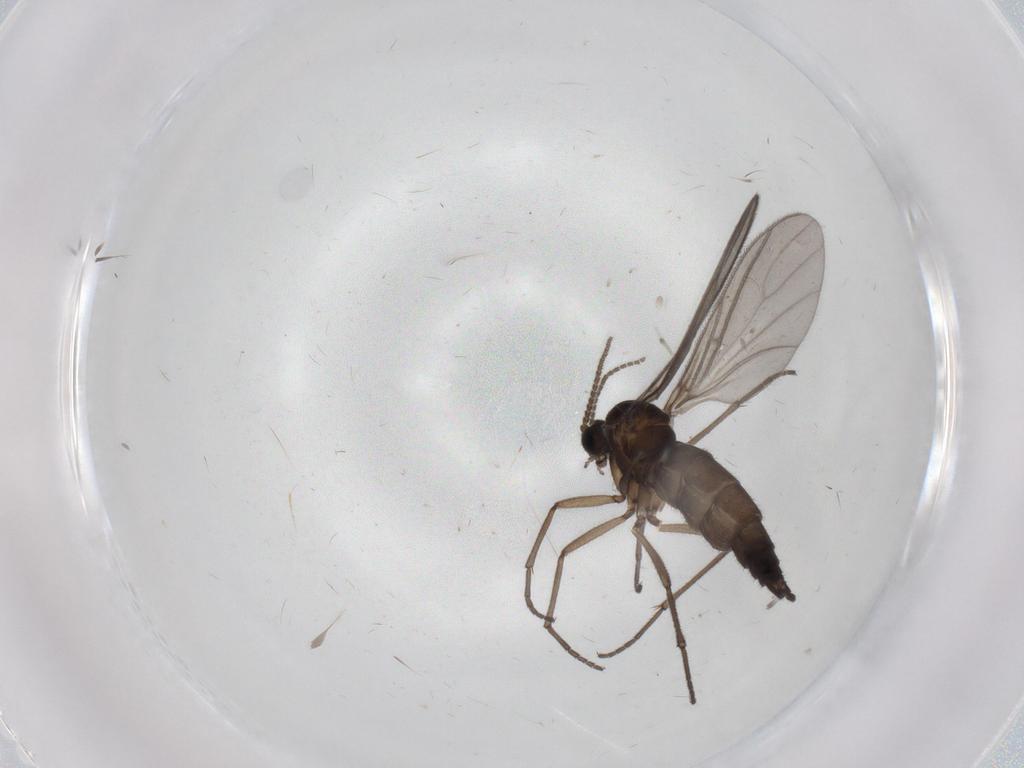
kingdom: Animalia
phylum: Arthropoda
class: Insecta
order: Diptera
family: Sciaridae
